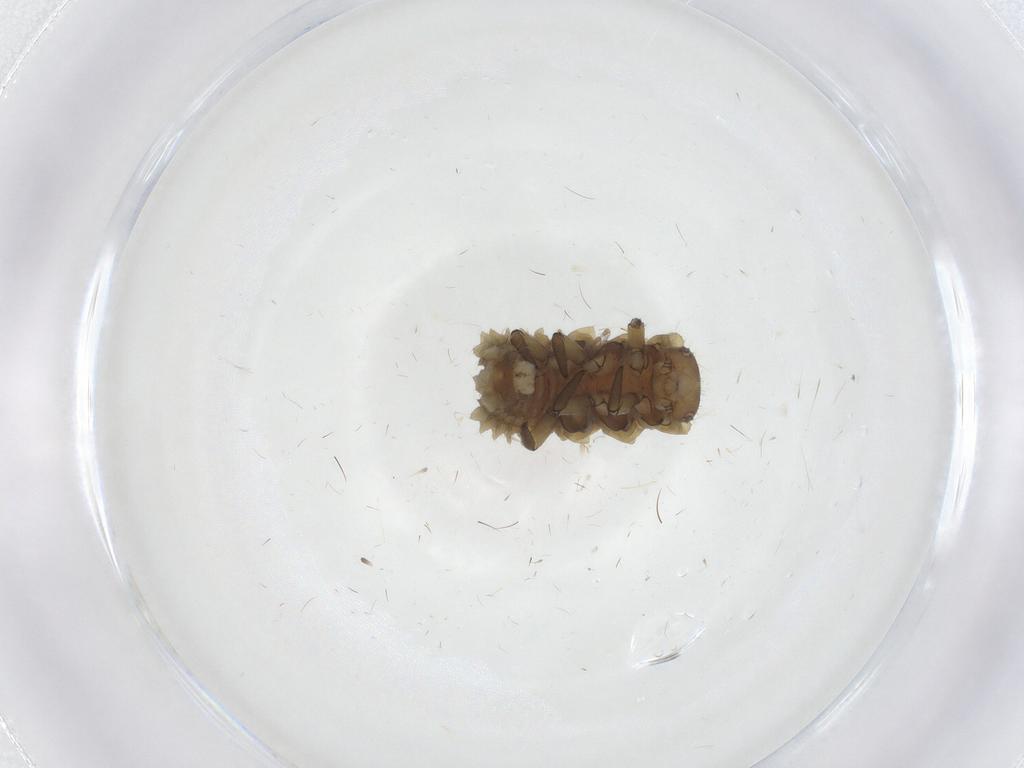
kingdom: Animalia
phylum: Arthropoda
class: Insecta
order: Coleoptera
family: Coccinellidae
